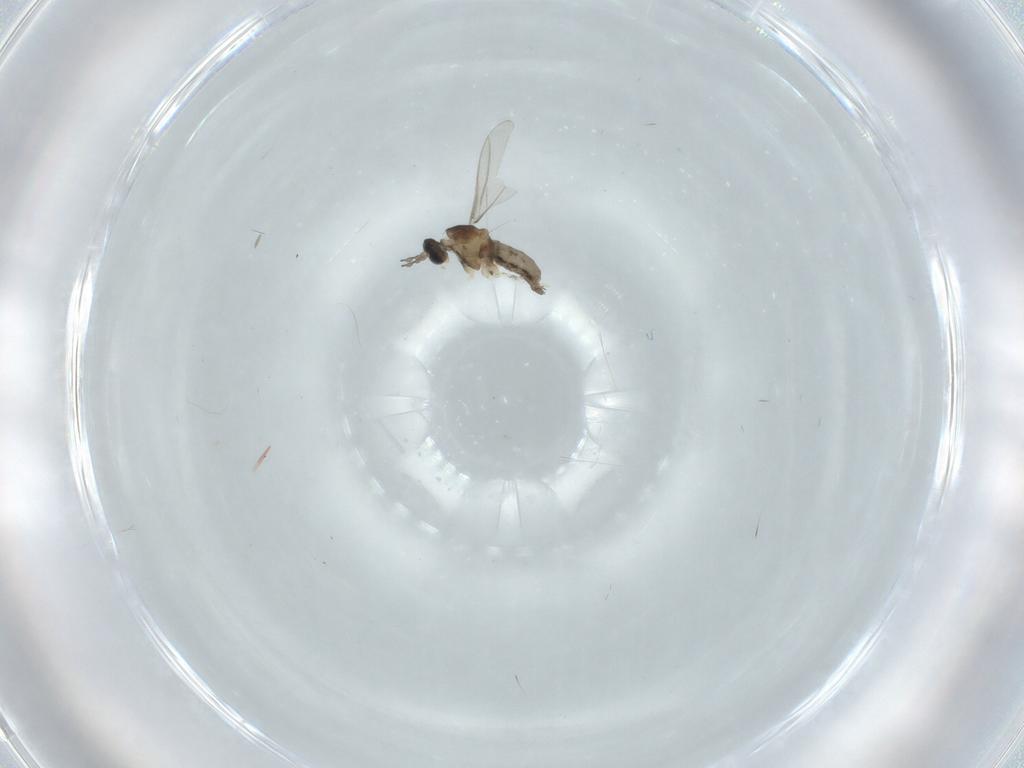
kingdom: Animalia
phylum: Arthropoda
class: Insecta
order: Diptera
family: Cecidomyiidae
